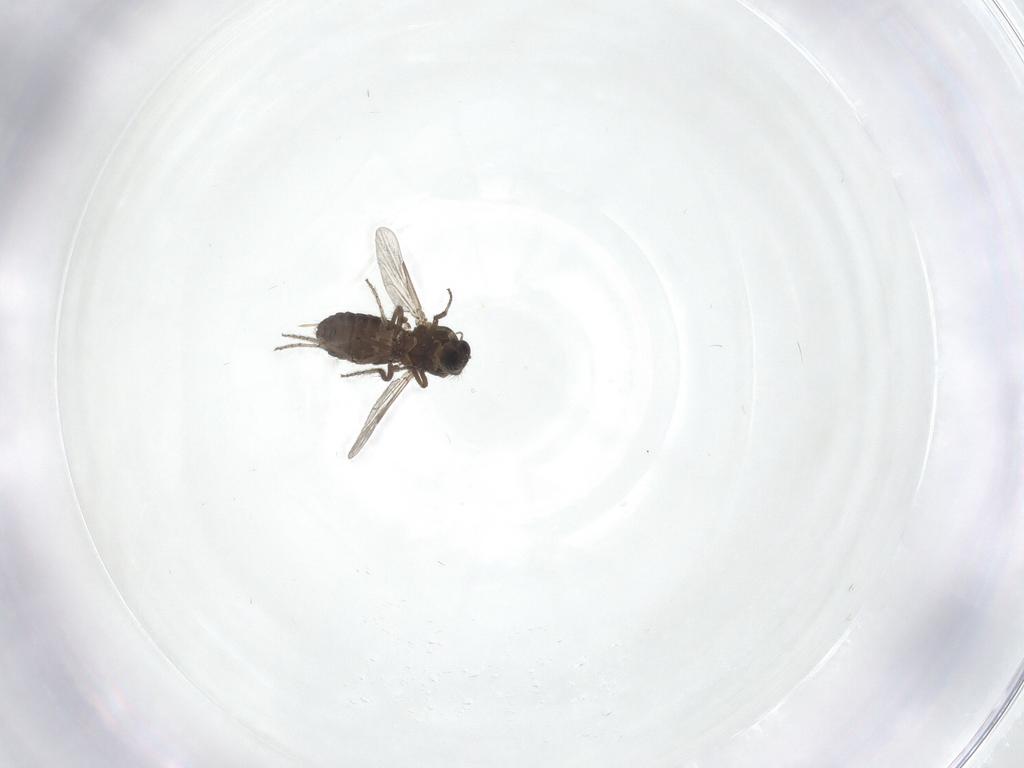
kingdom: Animalia
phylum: Arthropoda
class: Insecta
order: Diptera
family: Ceratopogonidae
